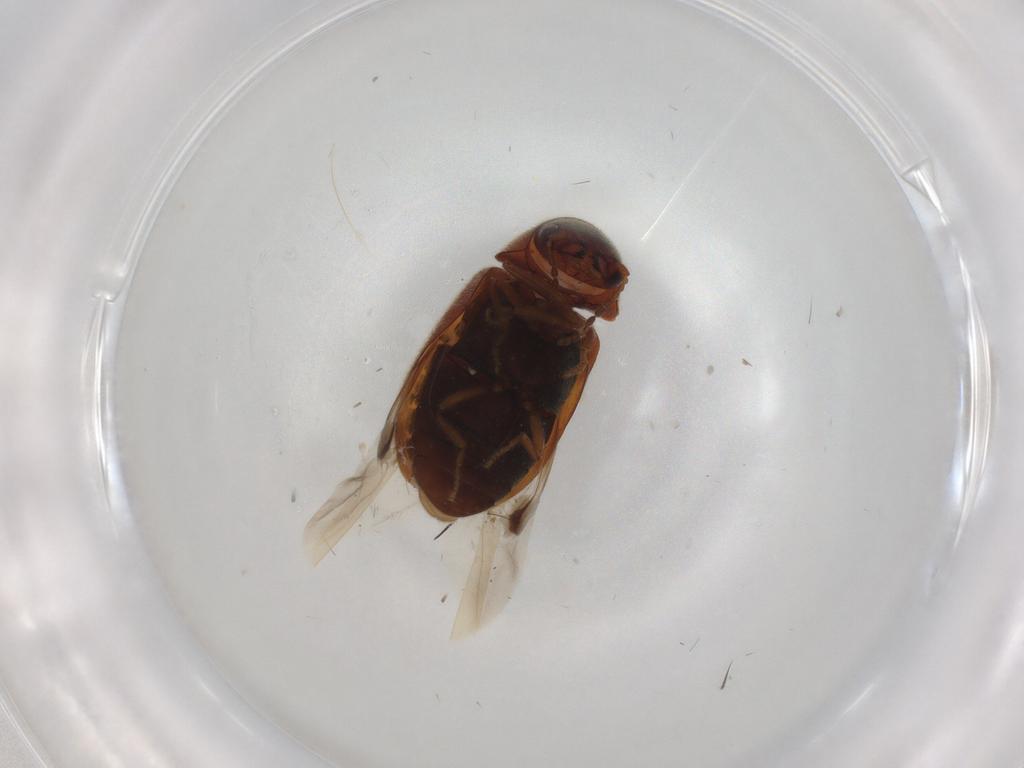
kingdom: Animalia
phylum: Arthropoda
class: Insecta
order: Coleoptera
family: Ptinidae
